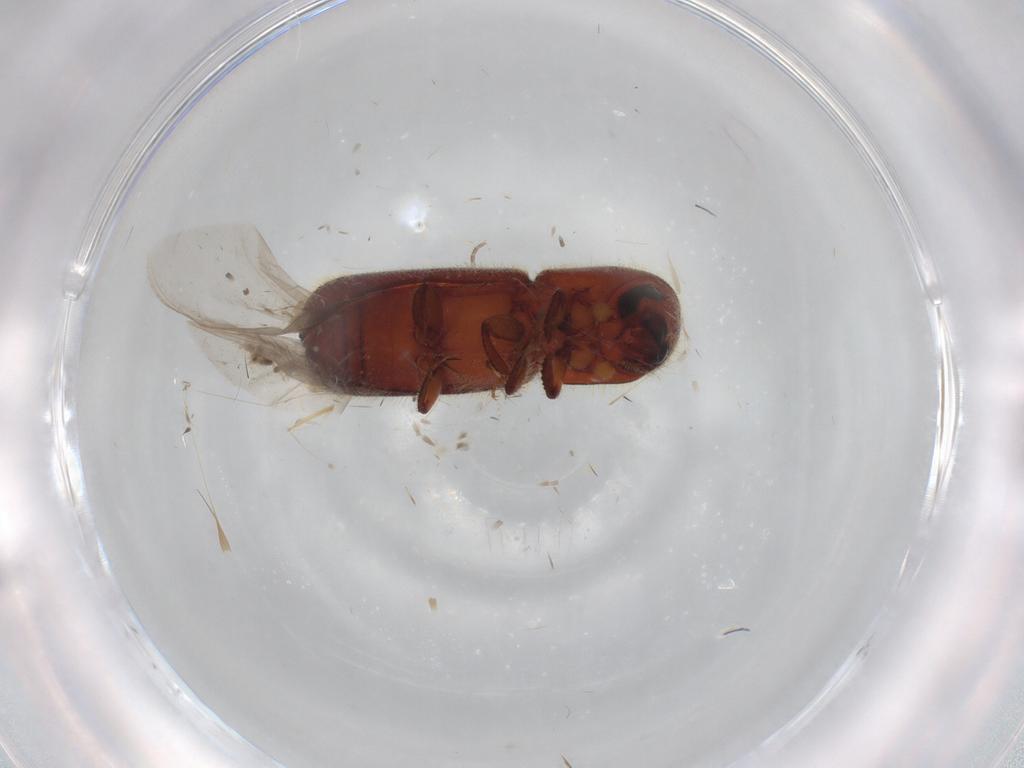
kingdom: Animalia
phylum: Arthropoda
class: Insecta
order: Coleoptera
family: Curculionidae
